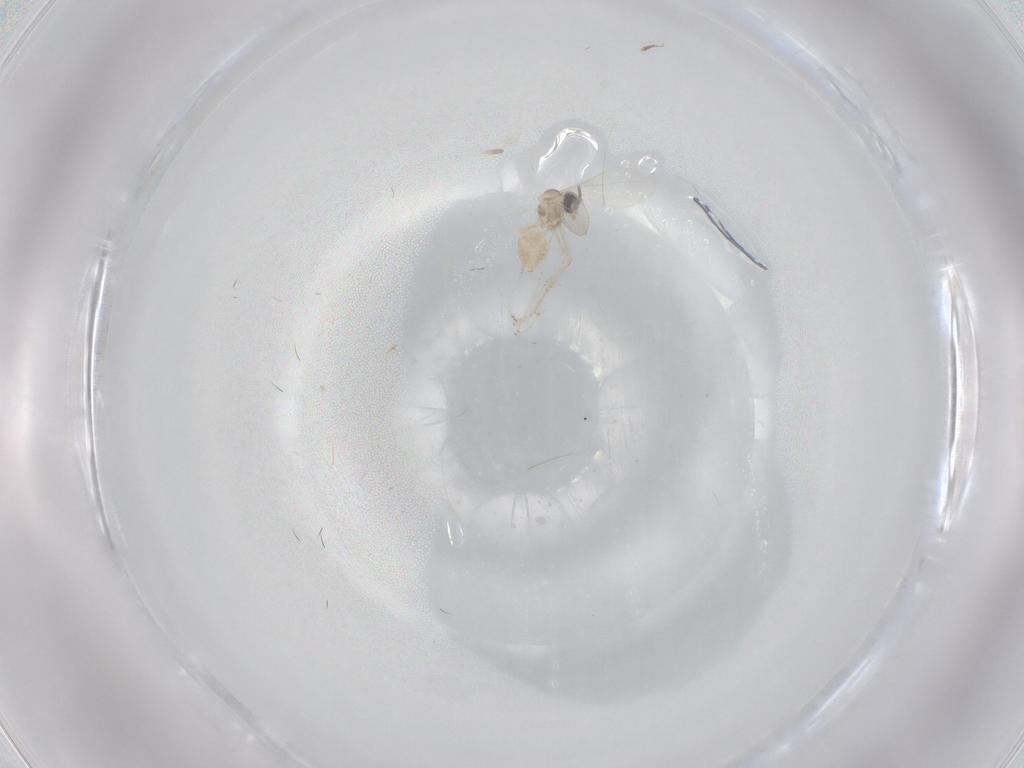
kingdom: Animalia
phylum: Arthropoda
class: Insecta
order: Diptera
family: Cecidomyiidae
